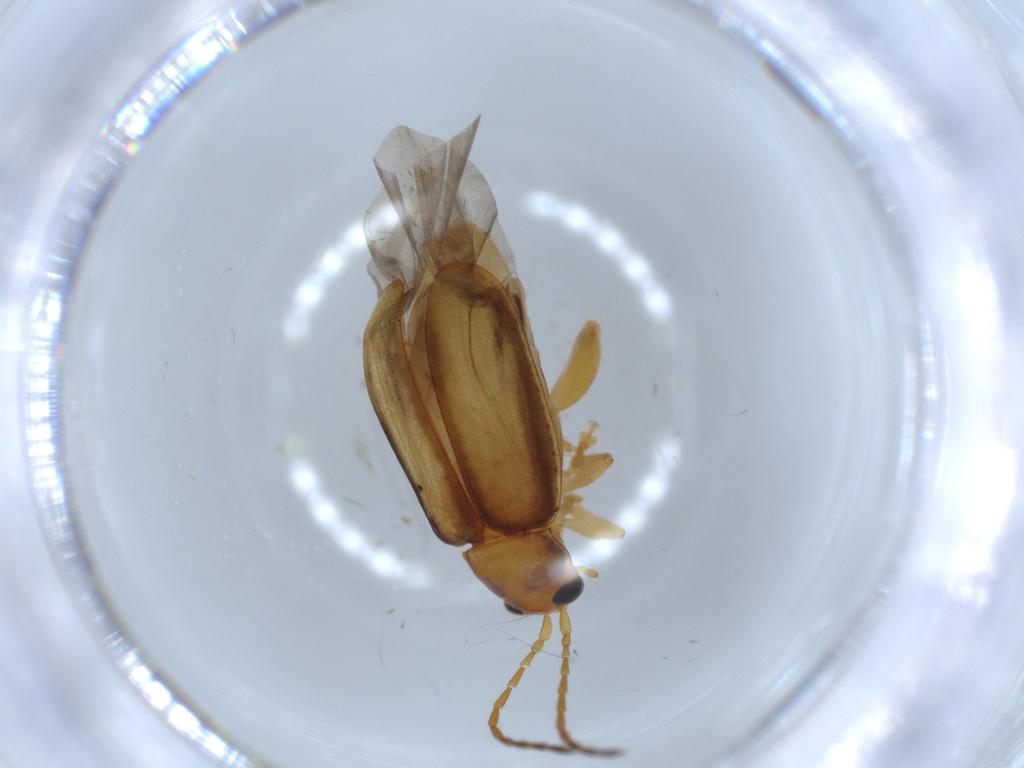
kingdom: Animalia
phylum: Arthropoda
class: Insecta
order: Coleoptera
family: Chrysomelidae
